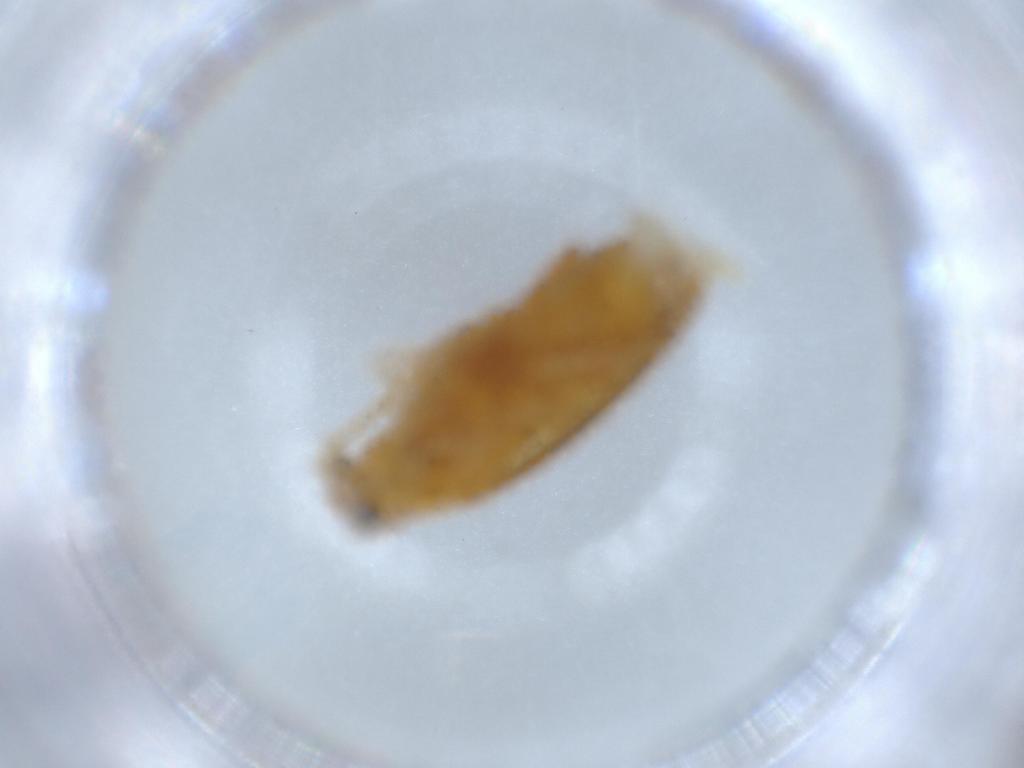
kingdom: Animalia
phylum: Arthropoda
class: Insecta
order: Coleoptera
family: Scraptiidae
